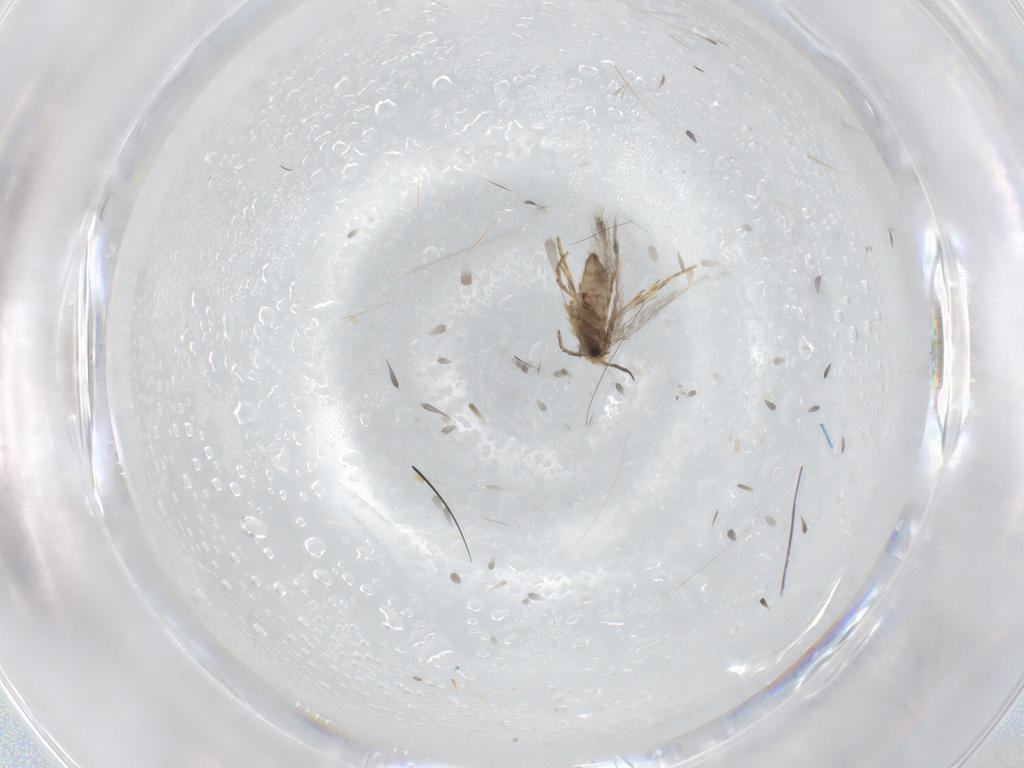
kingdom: Animalia
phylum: Arthropoda
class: Insecta
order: Lepidoptera
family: Nepticulidae
